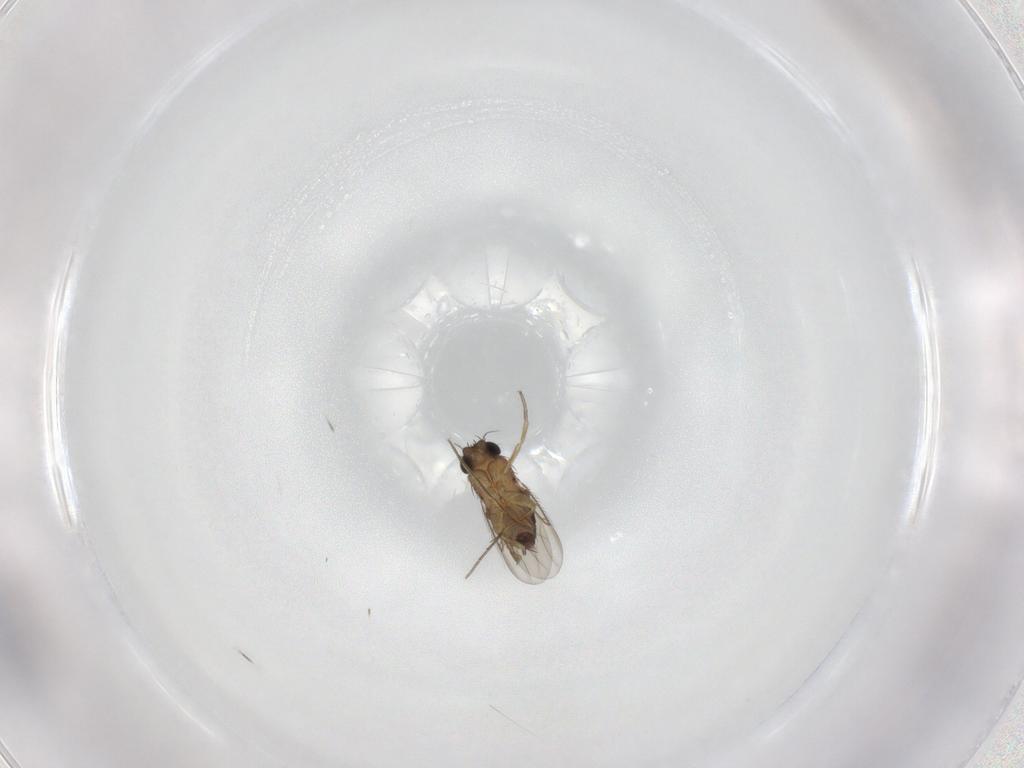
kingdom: Animalia
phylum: Arthropoda
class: Insecta
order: Diptera
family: Phoridae
